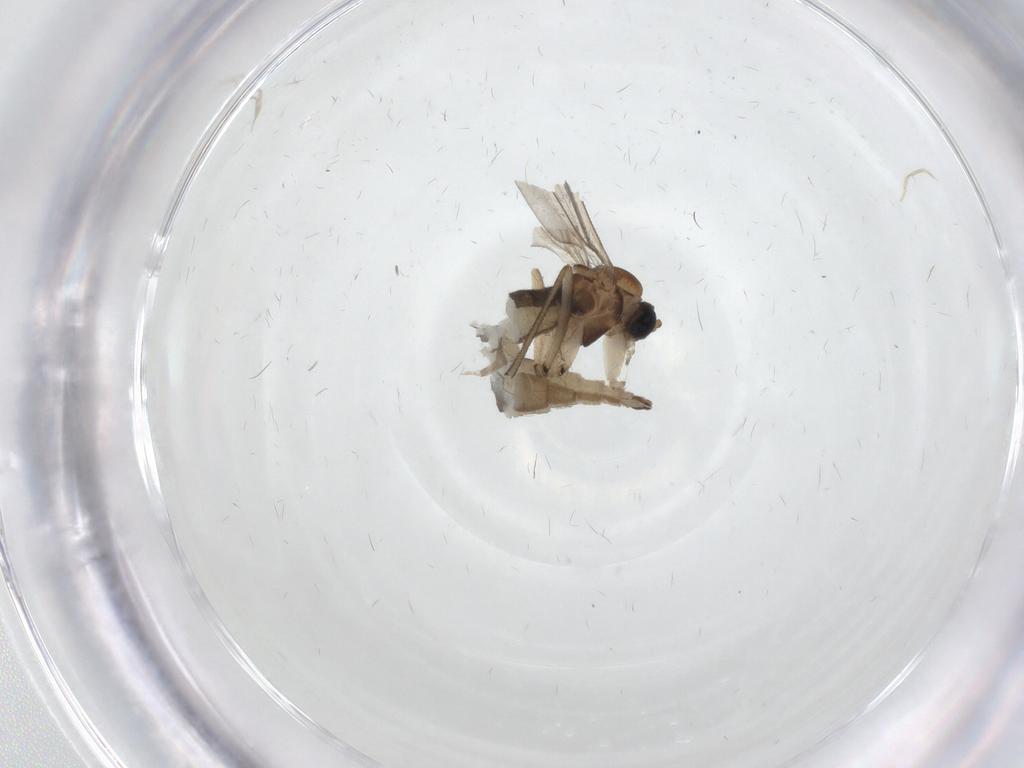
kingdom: Animalia
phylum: Arthropoda
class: Insecta
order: Diptera
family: Sciaridae
